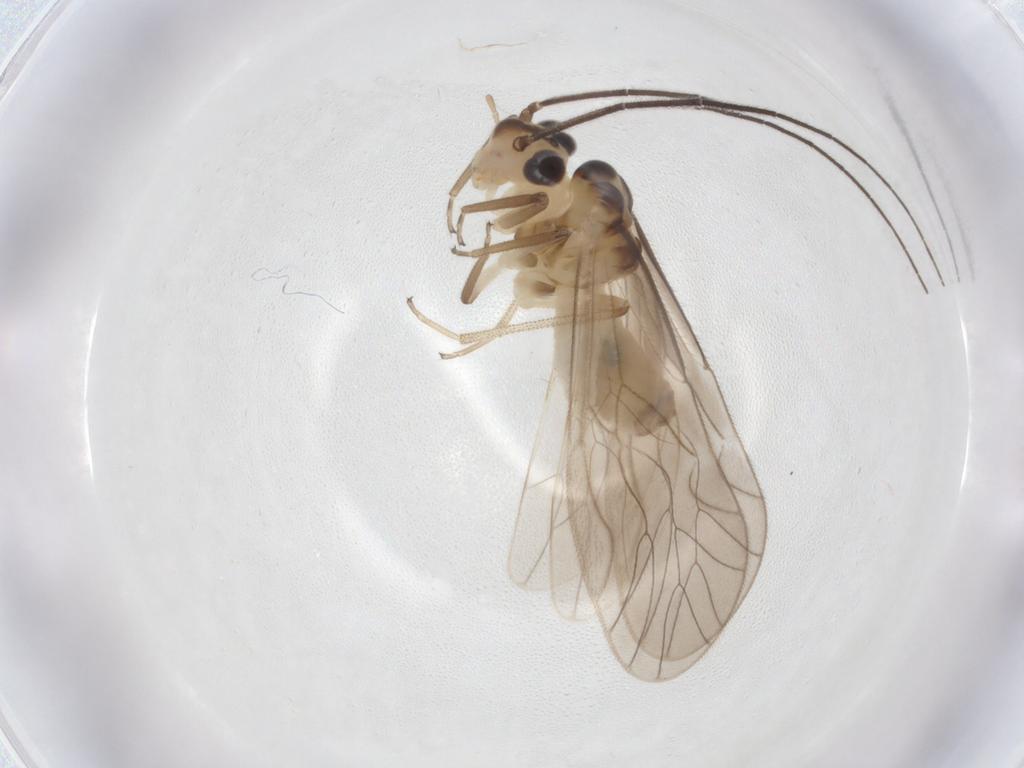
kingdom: Animalia
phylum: Arthropoda
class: Insecta
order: Psocodea
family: Caeciliusidae
